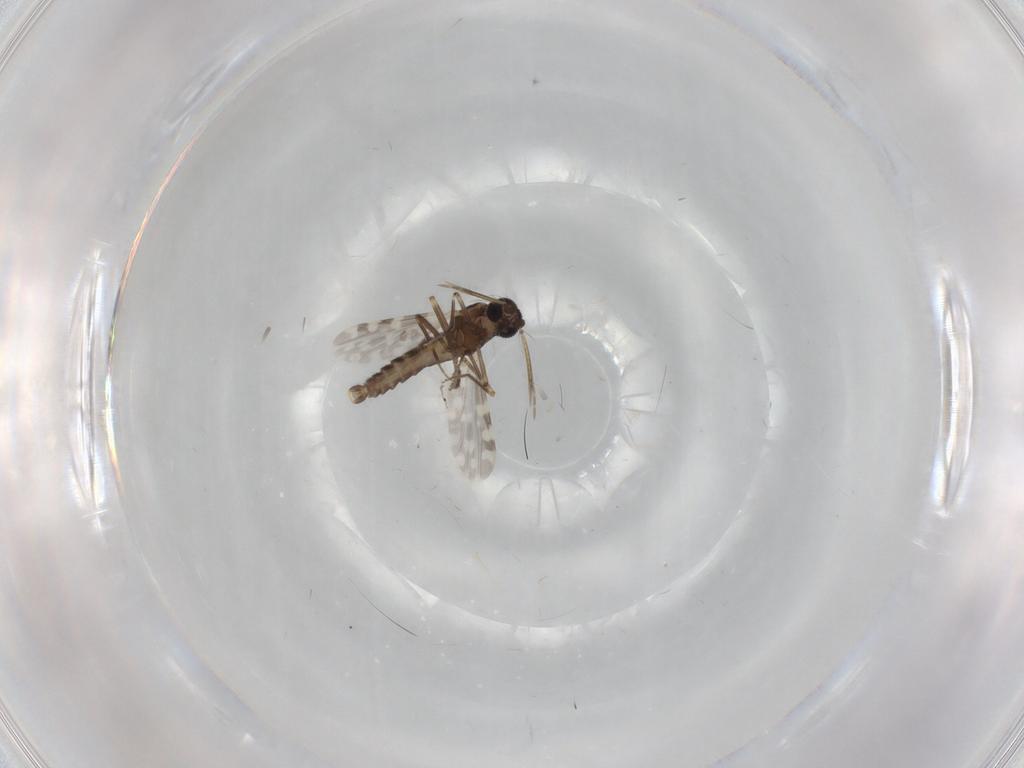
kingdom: Animalia
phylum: Arthropoda
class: Insecta
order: Diptera
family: Ceratopogonidae
